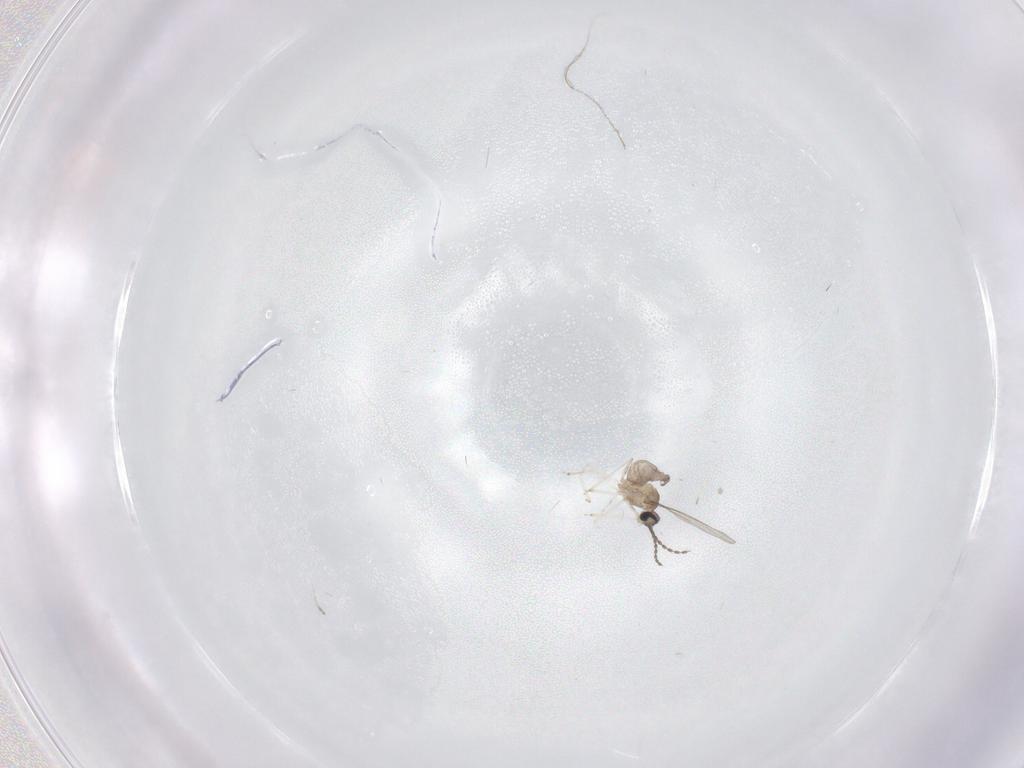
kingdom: Animalia
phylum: Arthropoda
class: Insecta
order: Diptera
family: Cecidomyiidae
